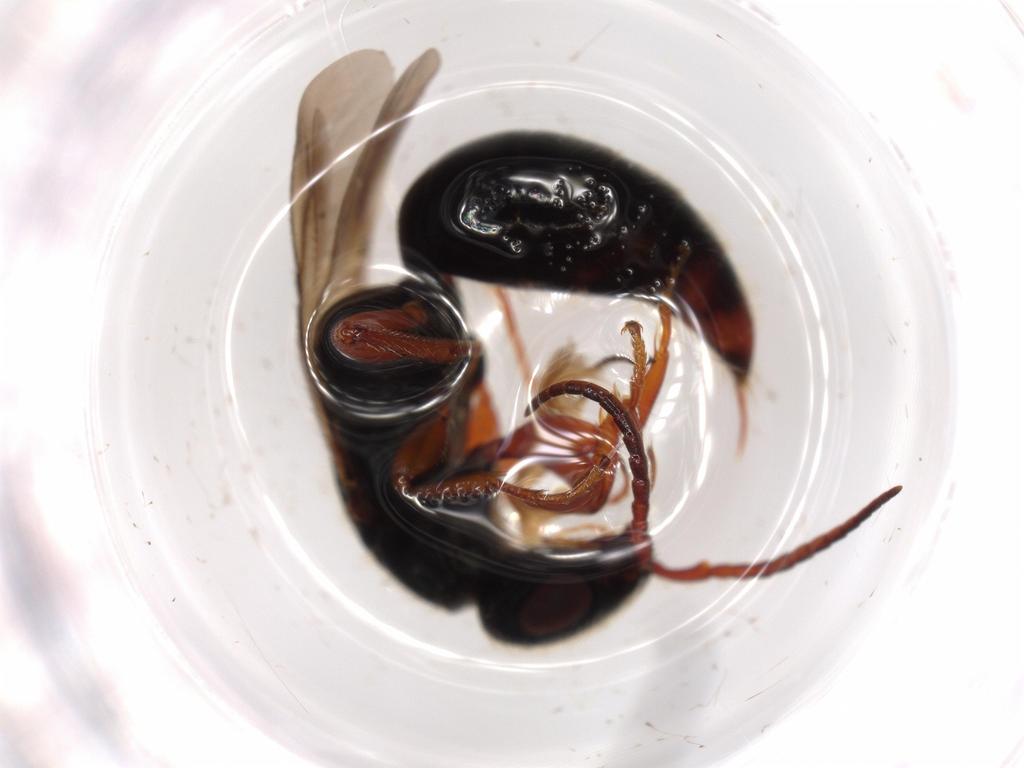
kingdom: Animalia
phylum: Arthropoda
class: Insecta
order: Hymenoptera
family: Bethylidae
